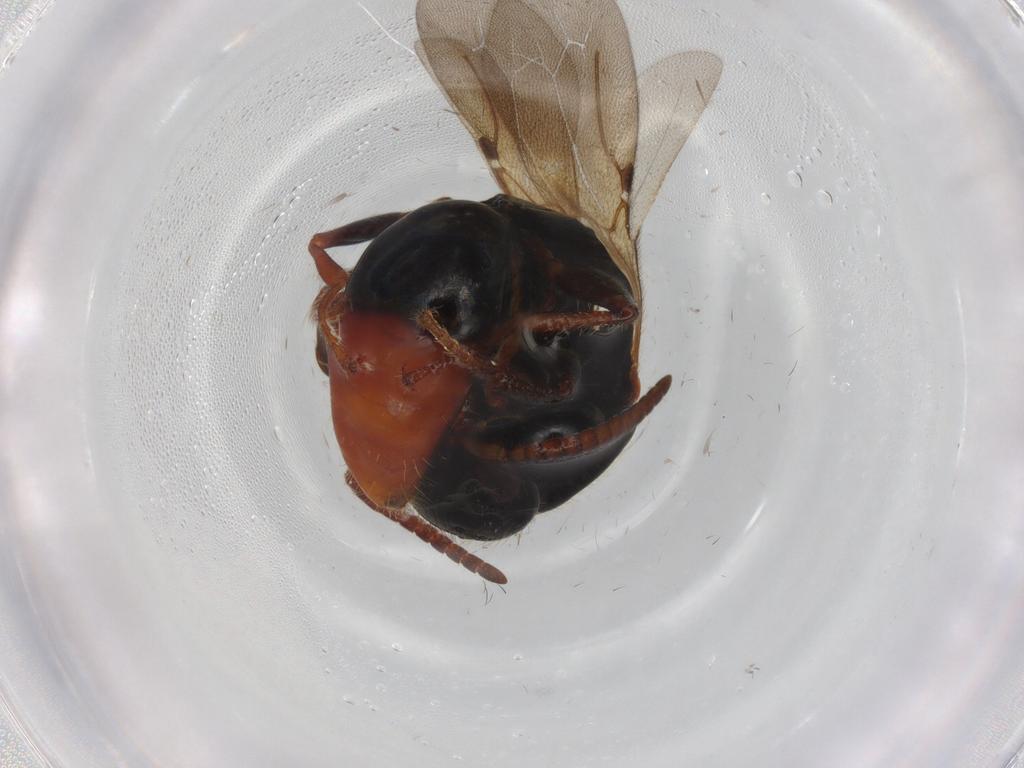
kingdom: Animalia
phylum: Arthropoda
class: Insecta
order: Hymenoptera
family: Bethylidae
